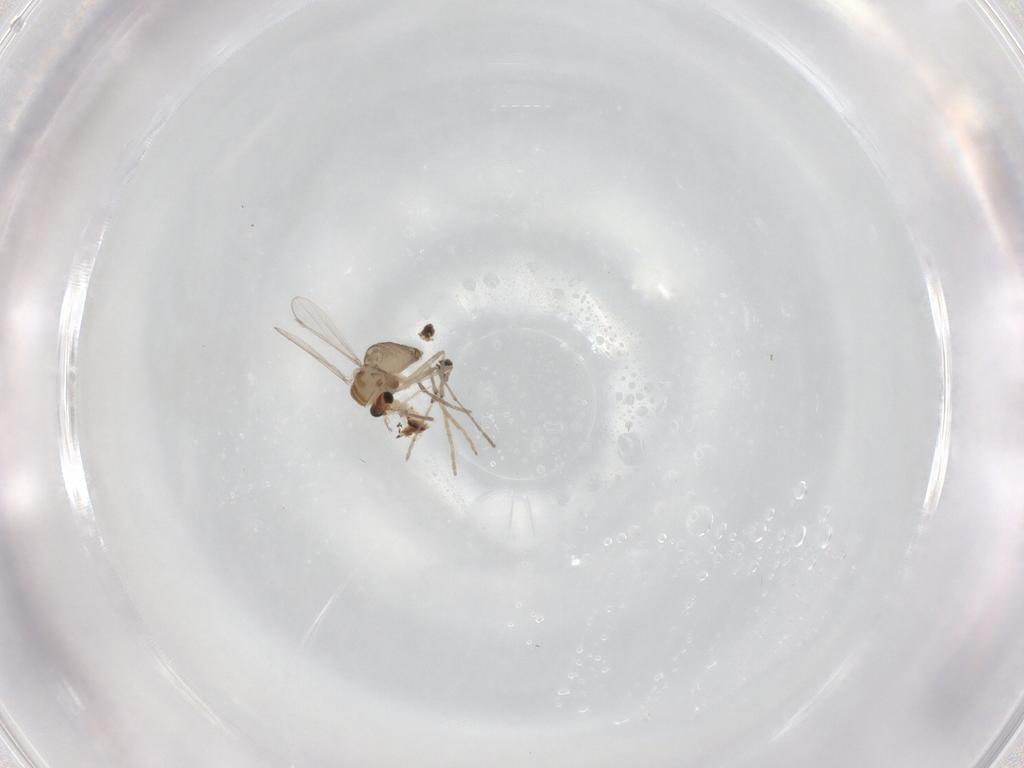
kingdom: Animalia
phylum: Arthropoda
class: Insecta
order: Diptera
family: Chironomidae
